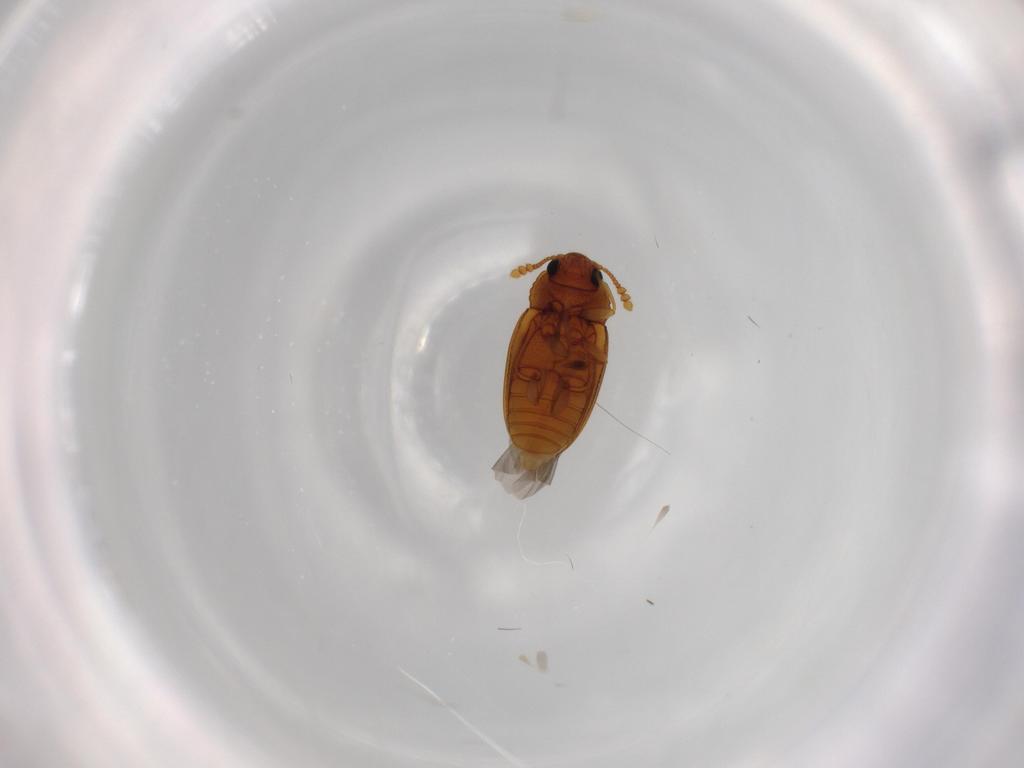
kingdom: Animalia
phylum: Arthropoda
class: Insecta
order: Coleoptera
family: Erotylidae
